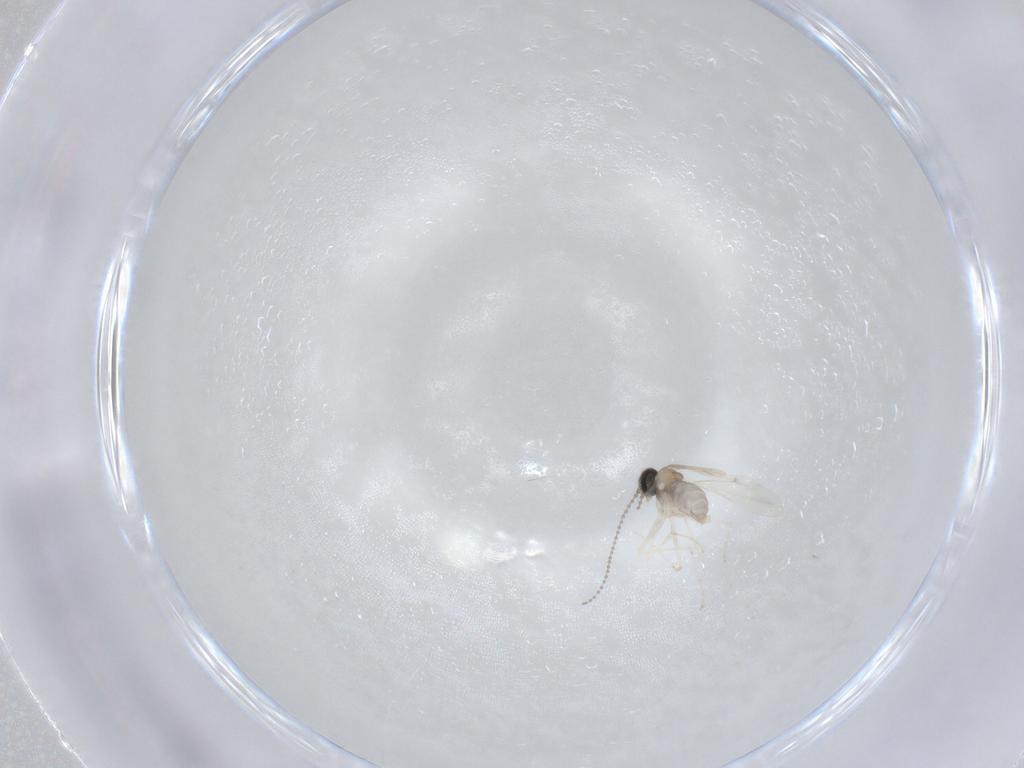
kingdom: Animalia
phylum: Arthropoda
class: Insecta
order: Diptera
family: Cecidomyiidae
